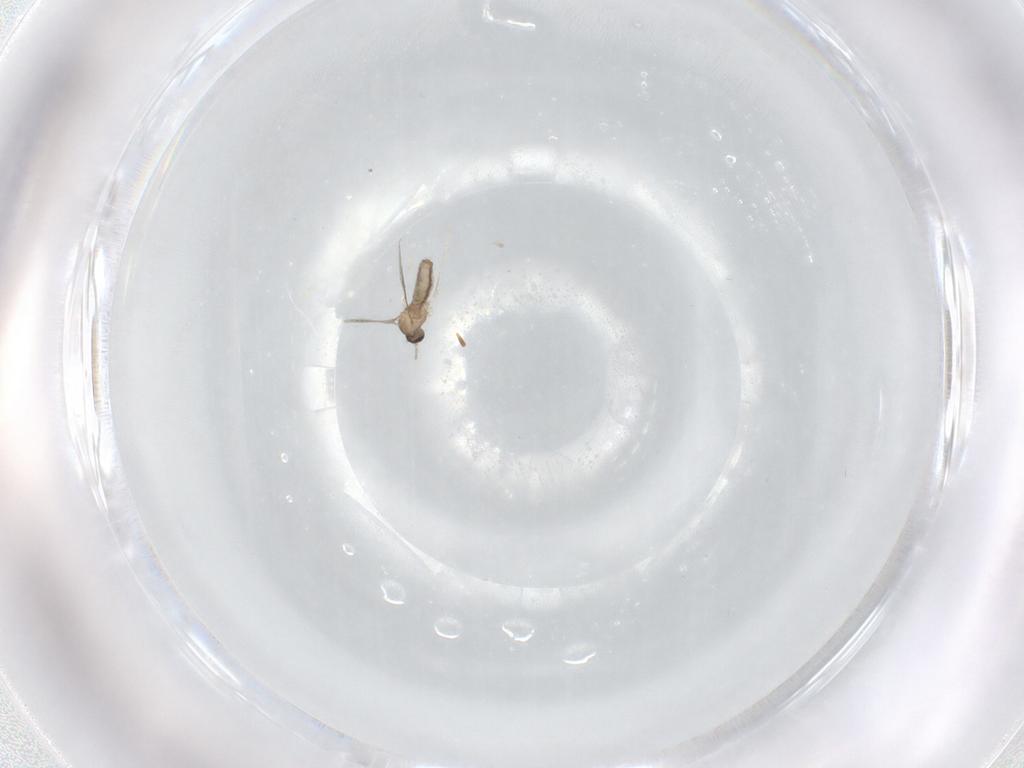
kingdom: Animalia
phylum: Arthropoda
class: Insecta
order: Diptera
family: Cecidomyiidae
